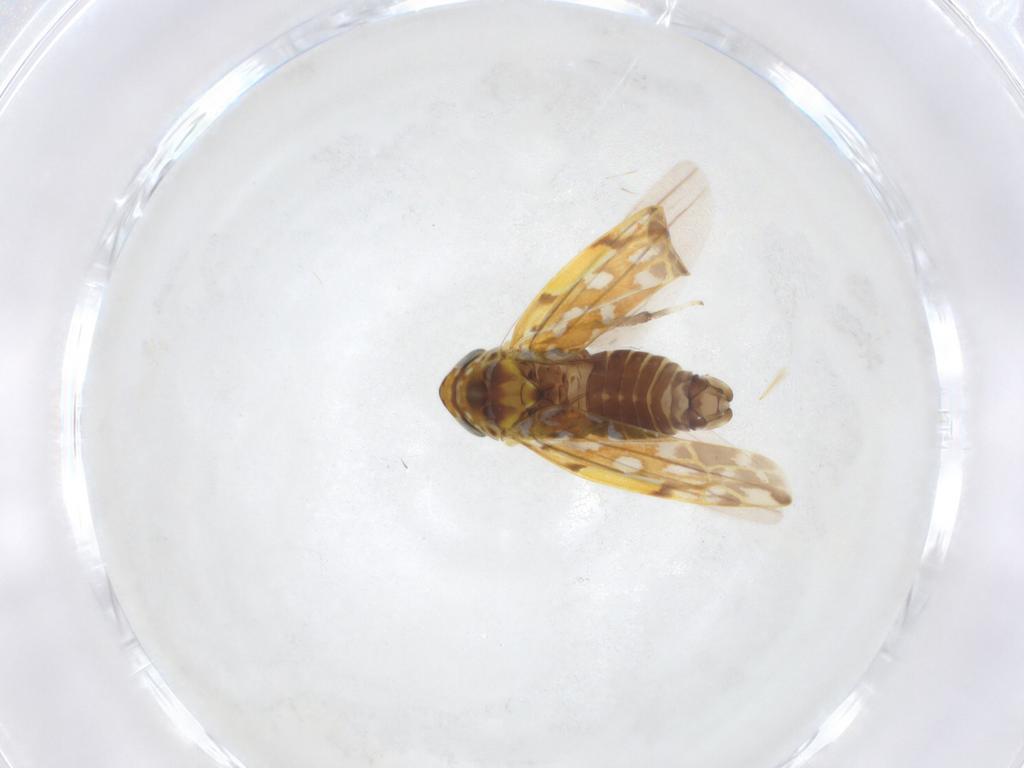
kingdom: Animalia
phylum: Arthropoda
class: Insecta
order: Hemiptera
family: Cicadellidae
